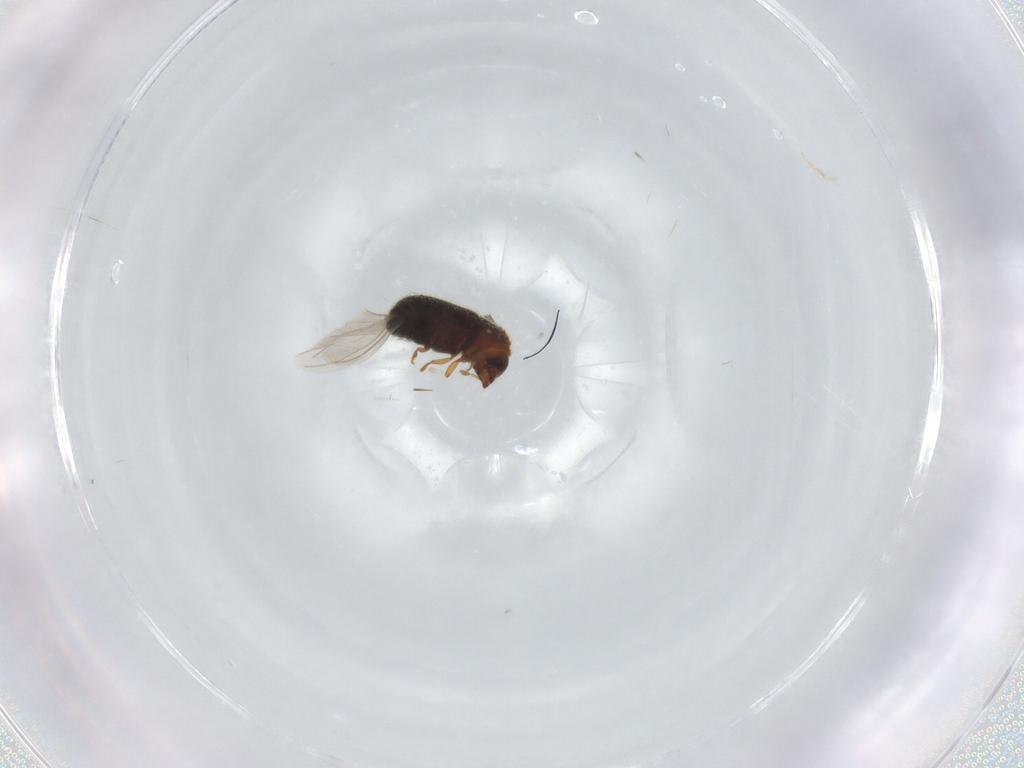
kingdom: Animalia
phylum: Arthropoda
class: Insecta
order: Coleoptera
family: Curculionidae
